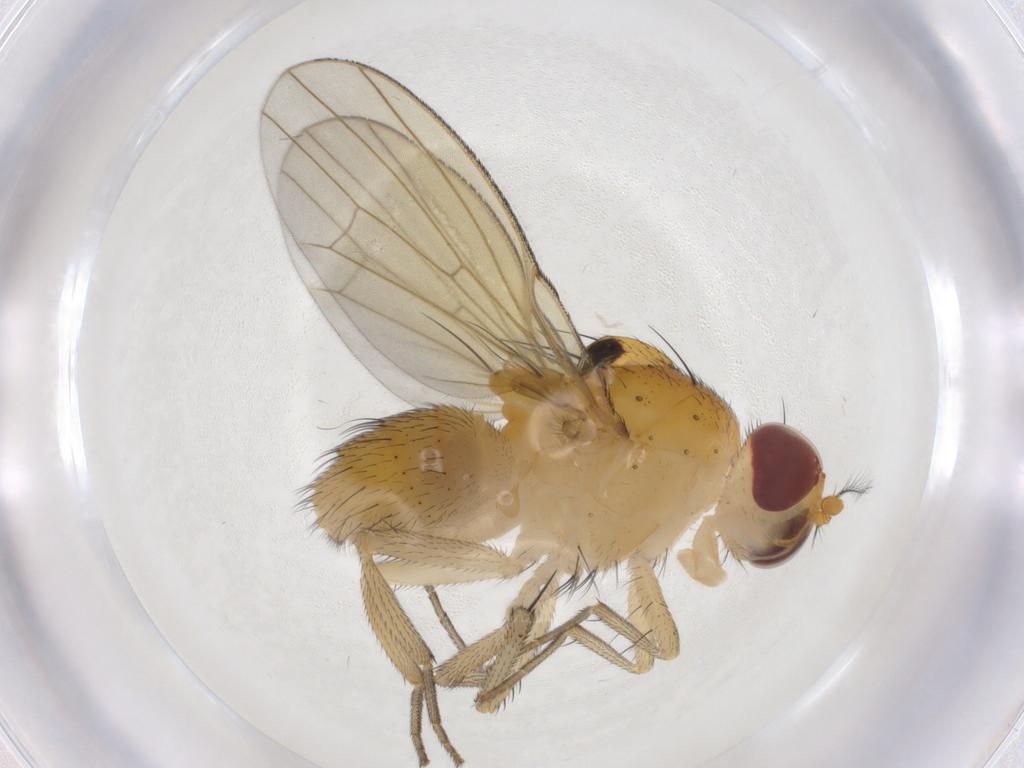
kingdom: Animalia
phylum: Arthropoda
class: Insecta
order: Diptera
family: Lauxaniidae
